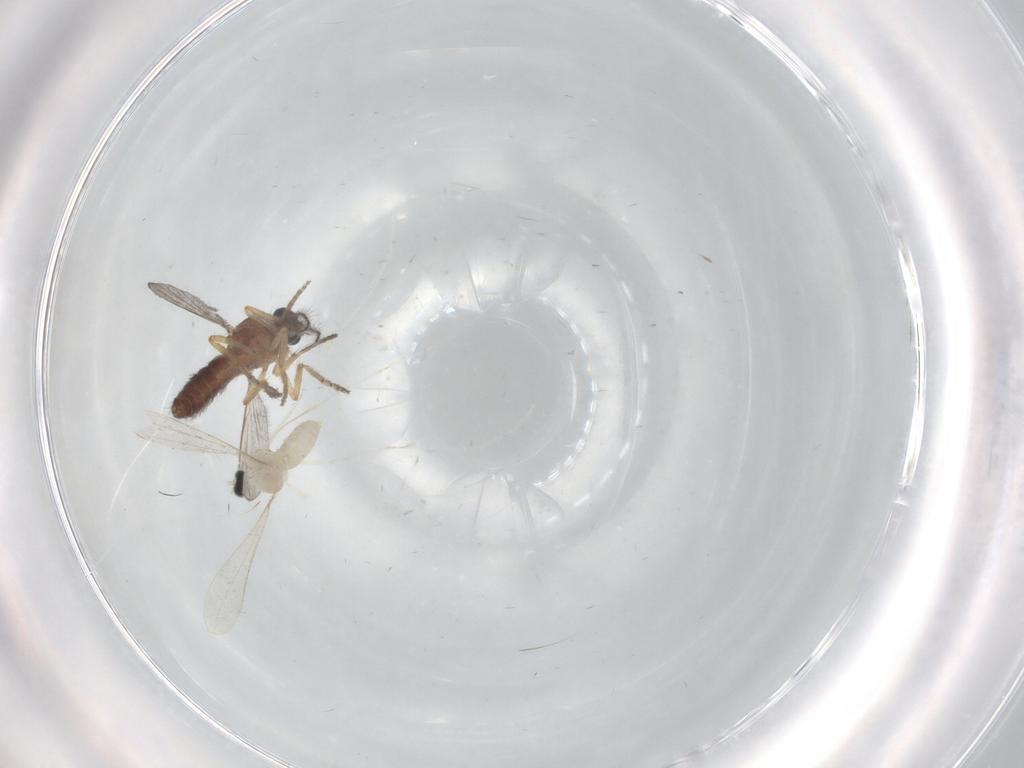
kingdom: Animalia
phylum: Arthropoda
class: Insecta
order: Diptera
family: Ceratopogonidae
